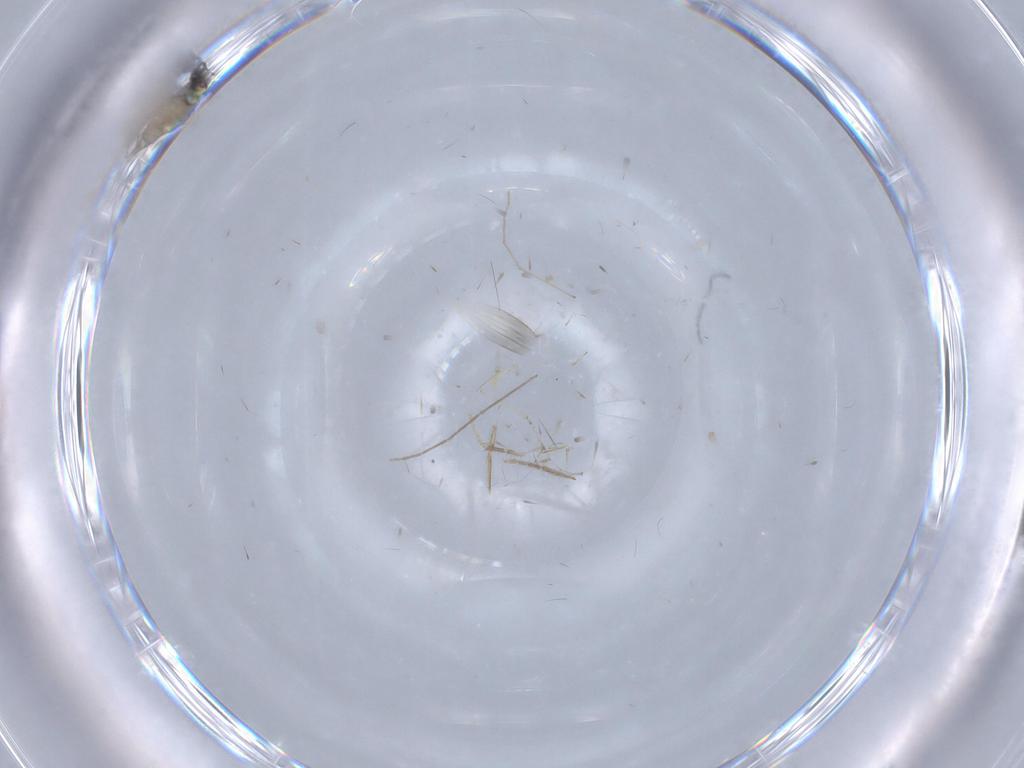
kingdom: Animalia
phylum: Arthropoda
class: Insecta
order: Diptera
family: Cecidomyiidae
